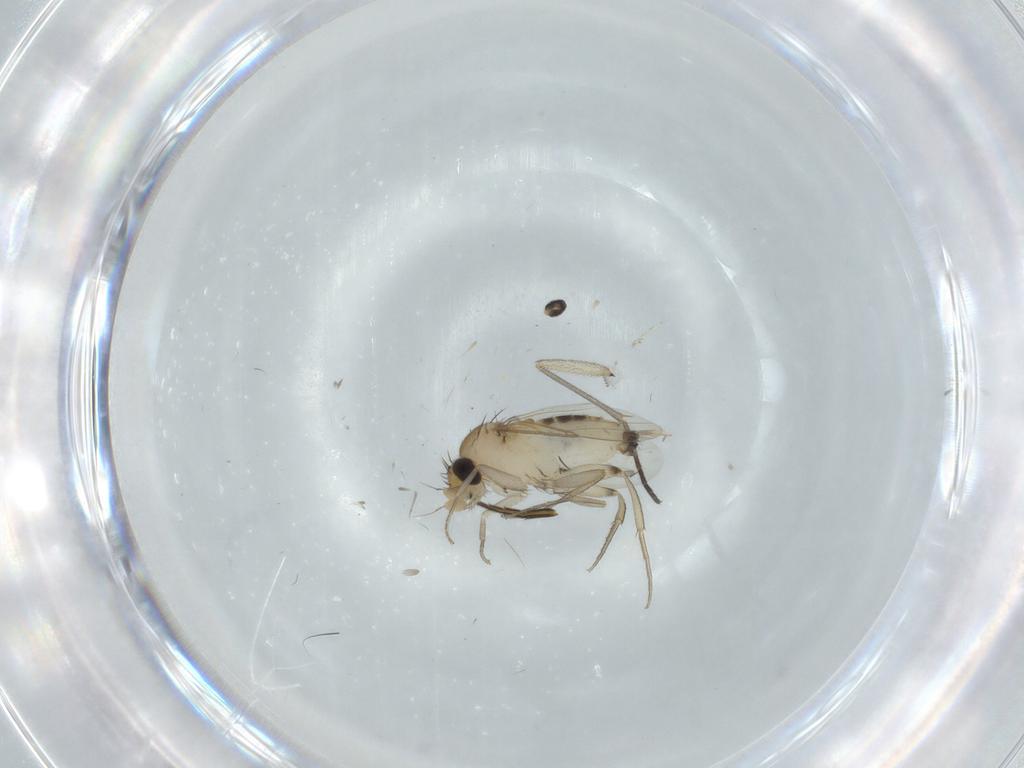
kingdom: Animalia
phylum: Arthropoda
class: Insecta
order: Diptera
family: Phoridae
